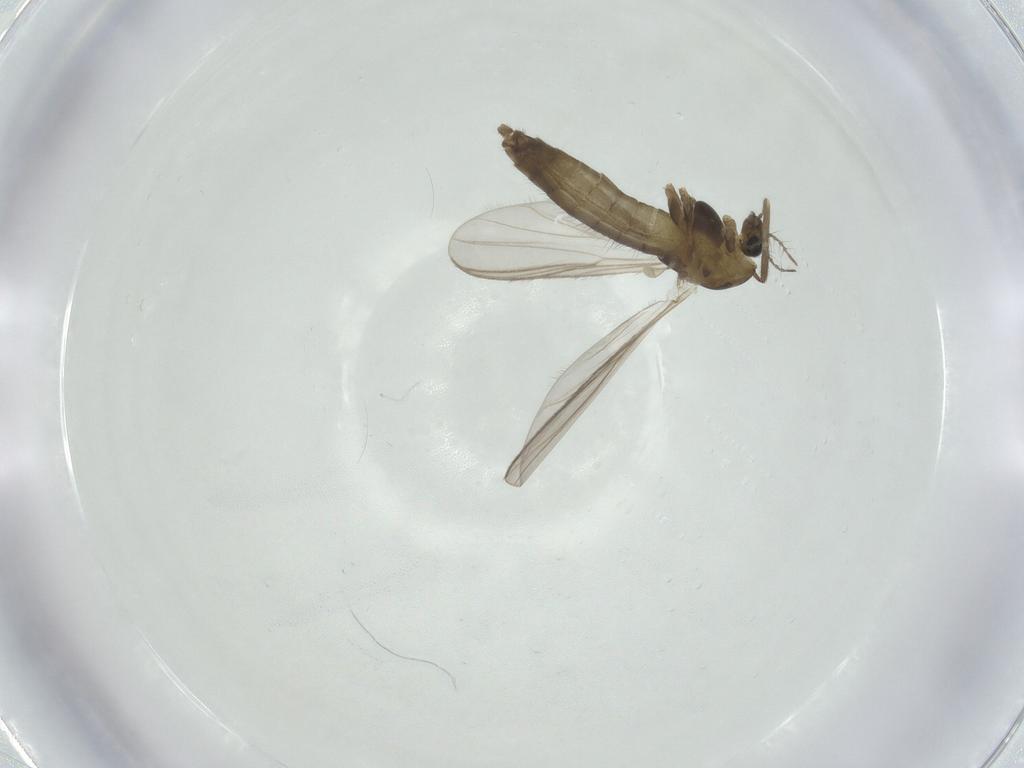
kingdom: Animalia
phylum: Arthropoda
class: Insecta
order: Diptera
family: Chironomidae
